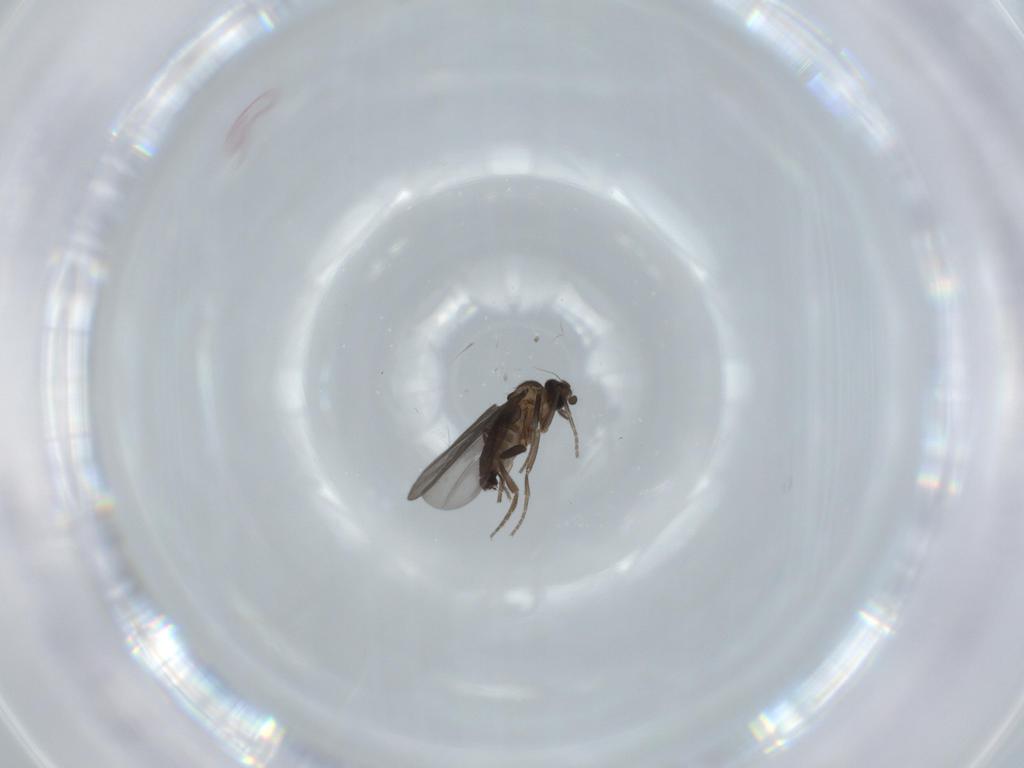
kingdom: Animalia
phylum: Arthropoda
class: Insecta
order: Diptera
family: Phoridae
